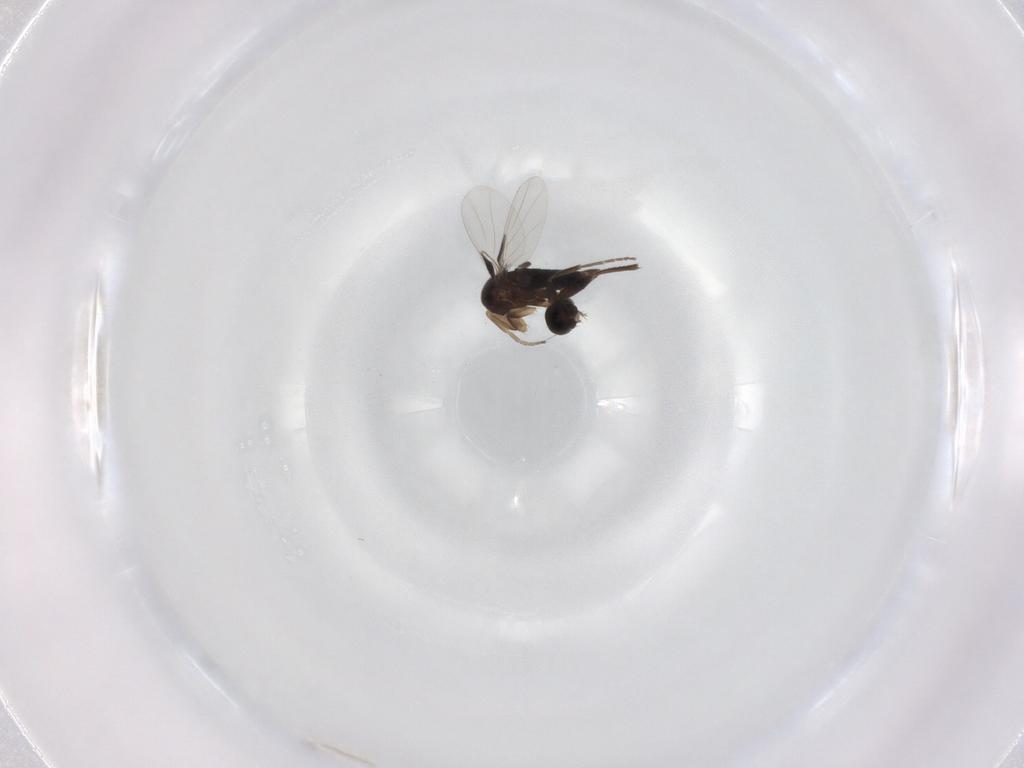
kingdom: Animalia
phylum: Arthropoda
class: Insecta
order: Diptera
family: Phoridae
